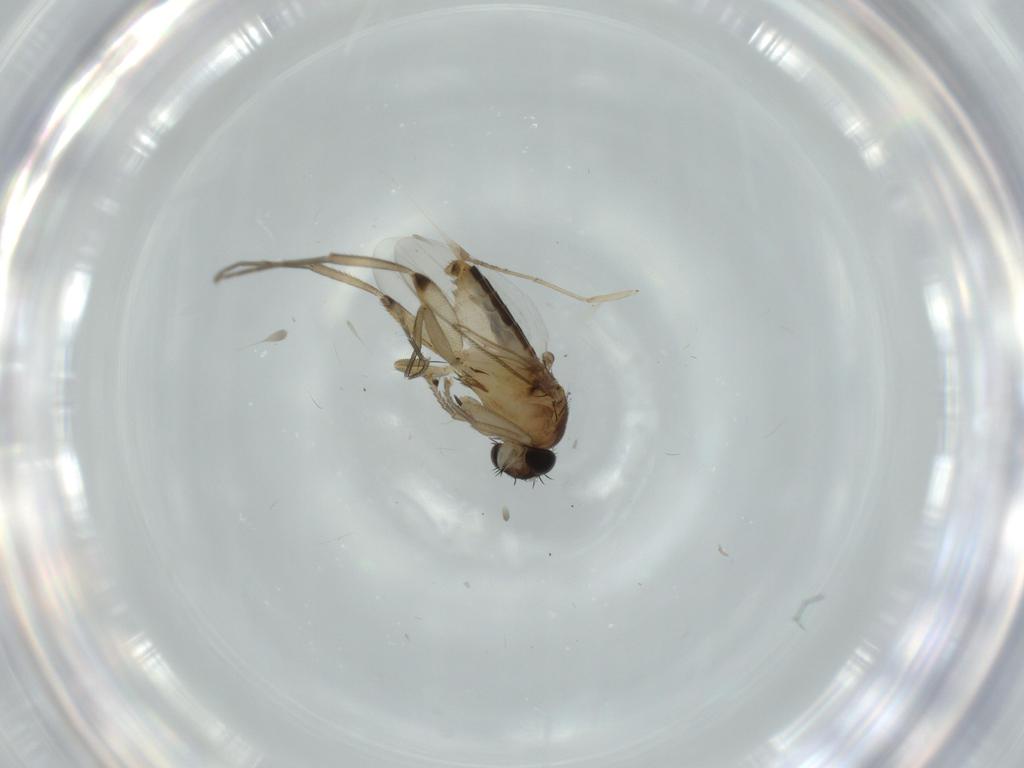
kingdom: Animalia
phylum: Arthropoda
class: Insecta
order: Diptera
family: Phoridae
